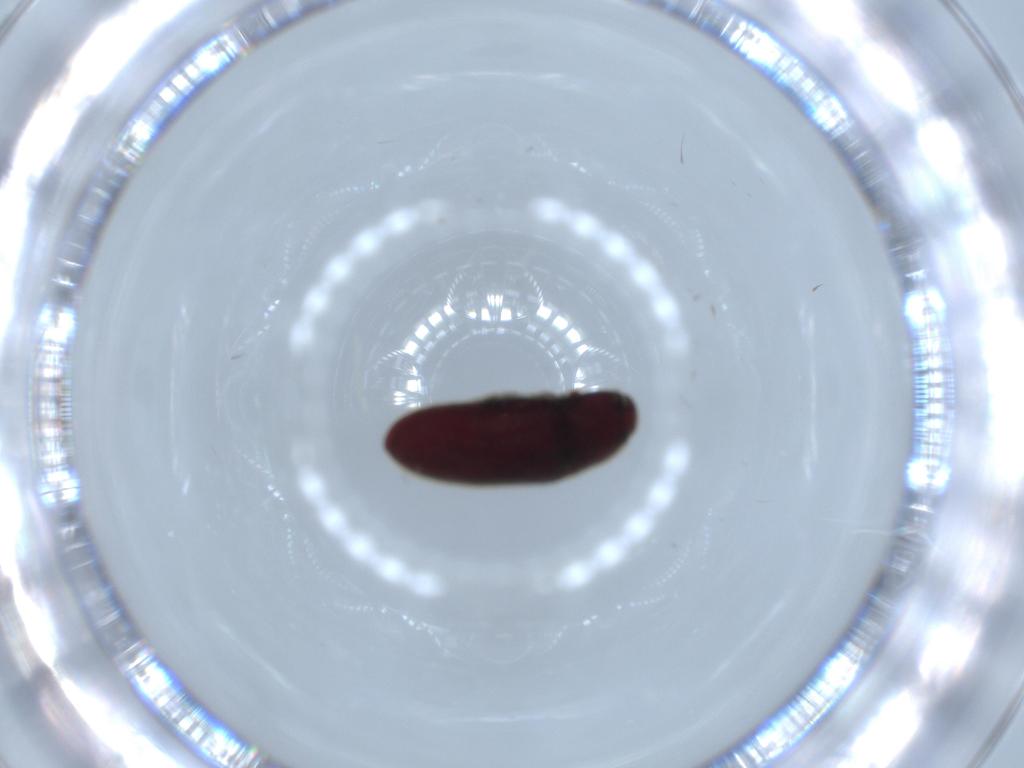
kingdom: Animalia
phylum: Arthropoda
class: Insecta
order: Coleoptera
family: Throscidae
